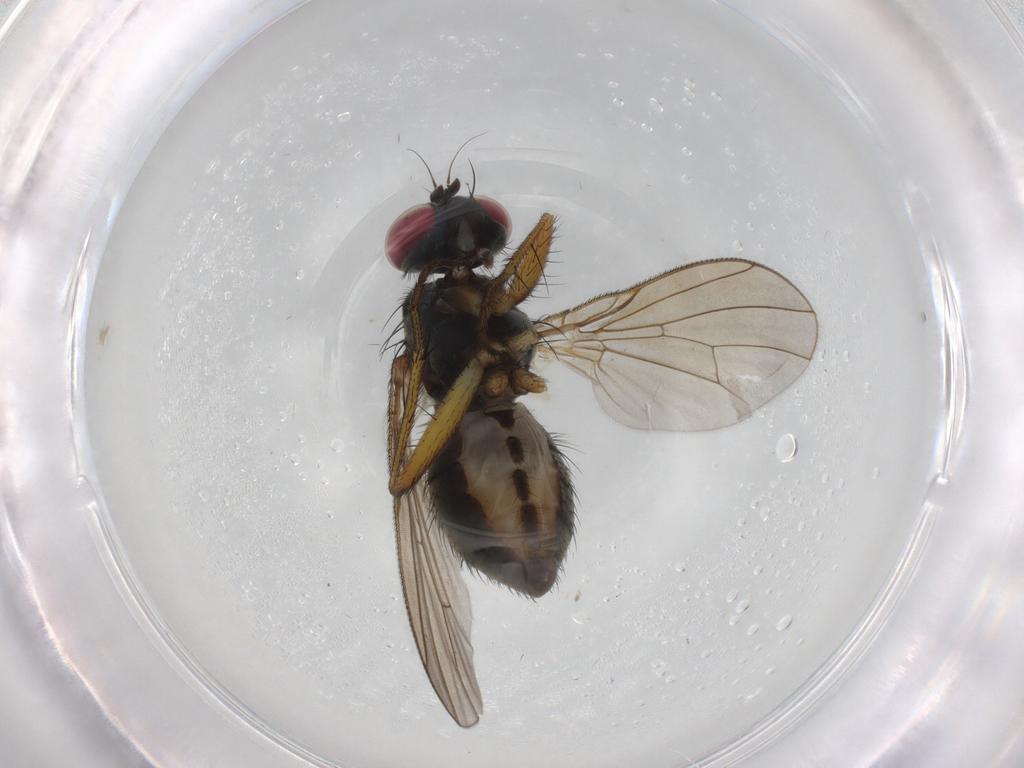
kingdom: Animalia
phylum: Arthropoda
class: Insecta
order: Diptera
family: Muscidae
